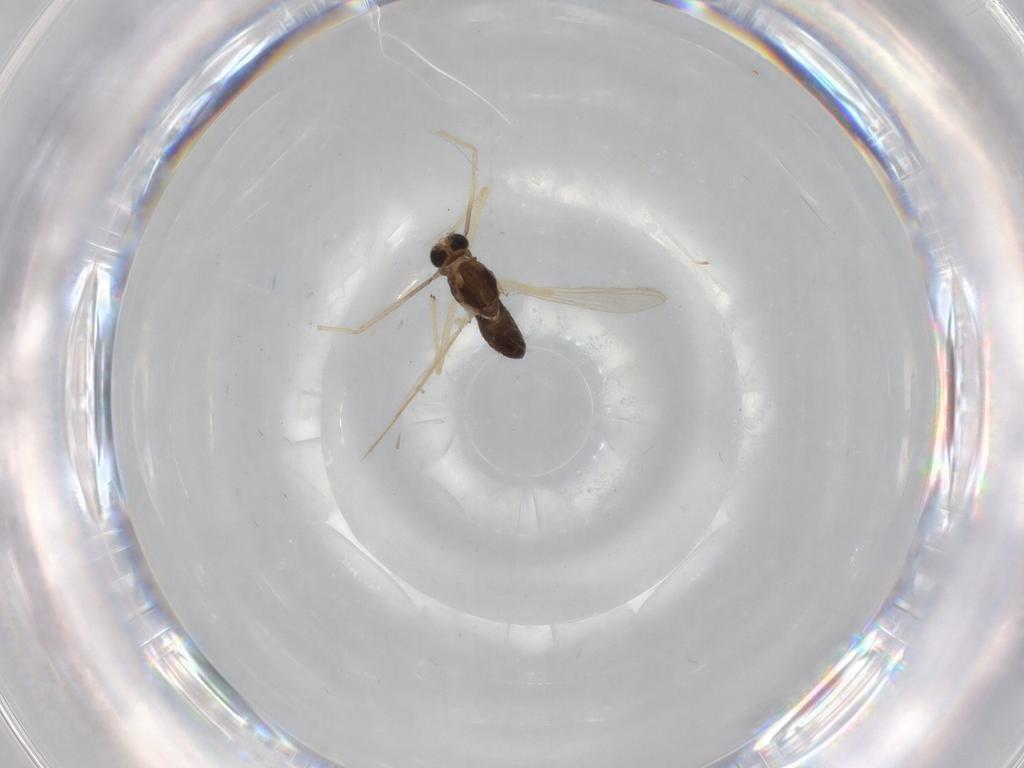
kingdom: Animalia
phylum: Arthropoda
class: Insecta
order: Diptera
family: Chironomidae
